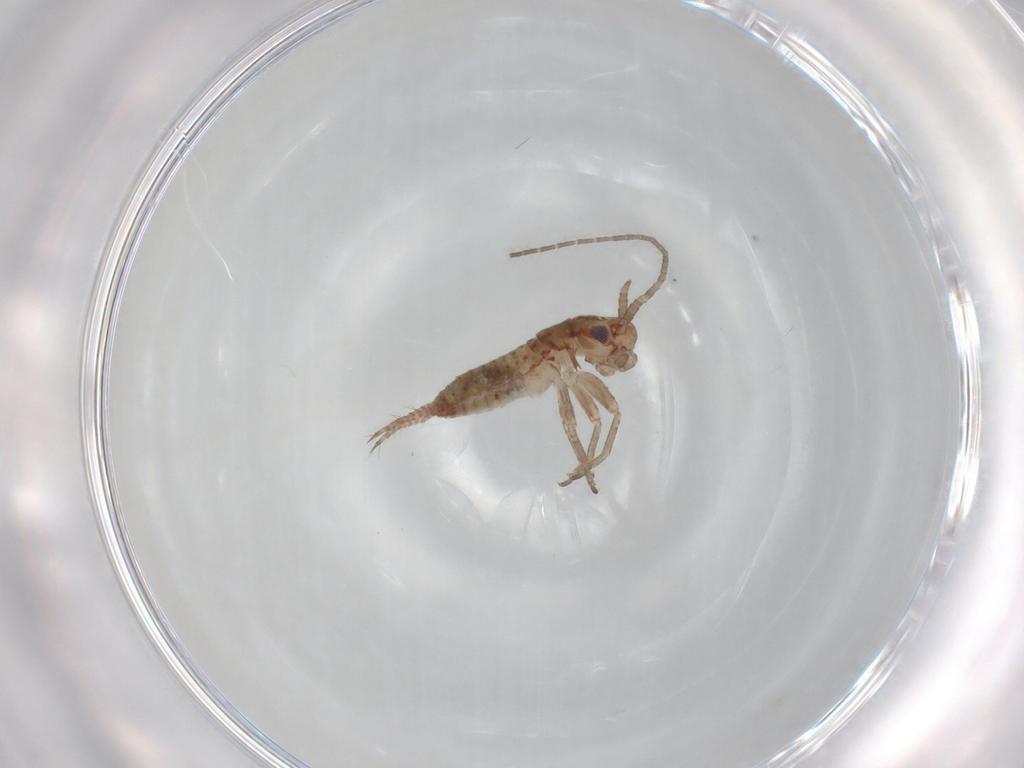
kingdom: Animalia
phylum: Arthropoda
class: Insecta
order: Orthoptera
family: Mogoplistidae
